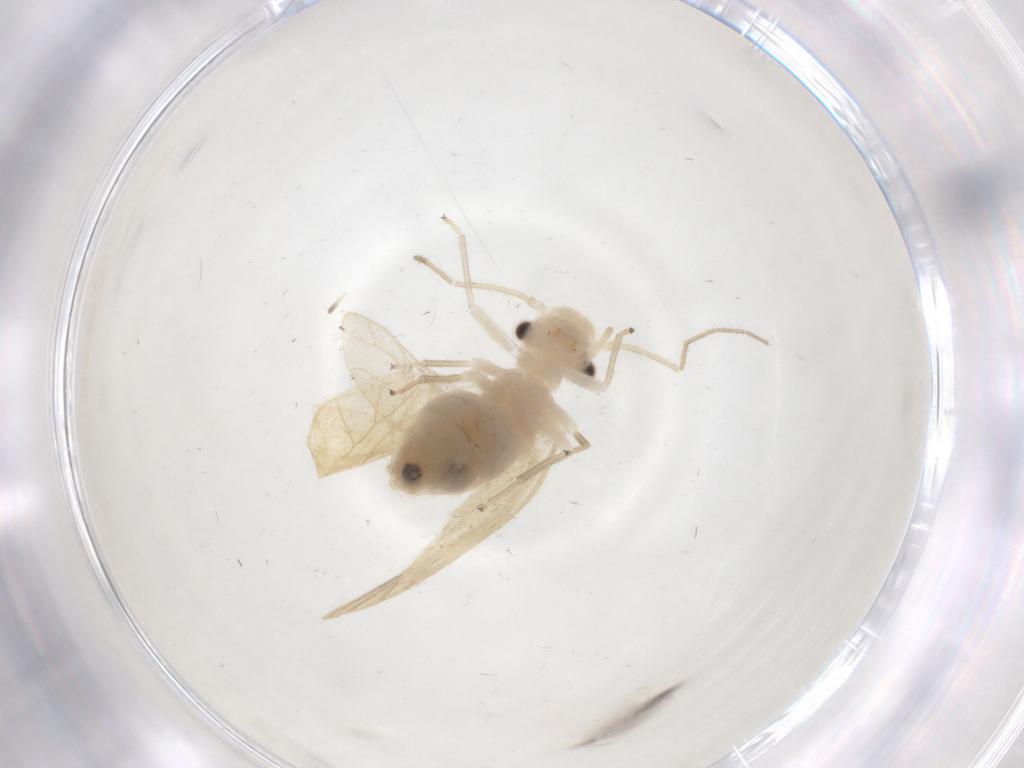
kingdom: Animalia
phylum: Arthropoda
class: Insecta
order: Psocodea
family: Caeciliusidae
